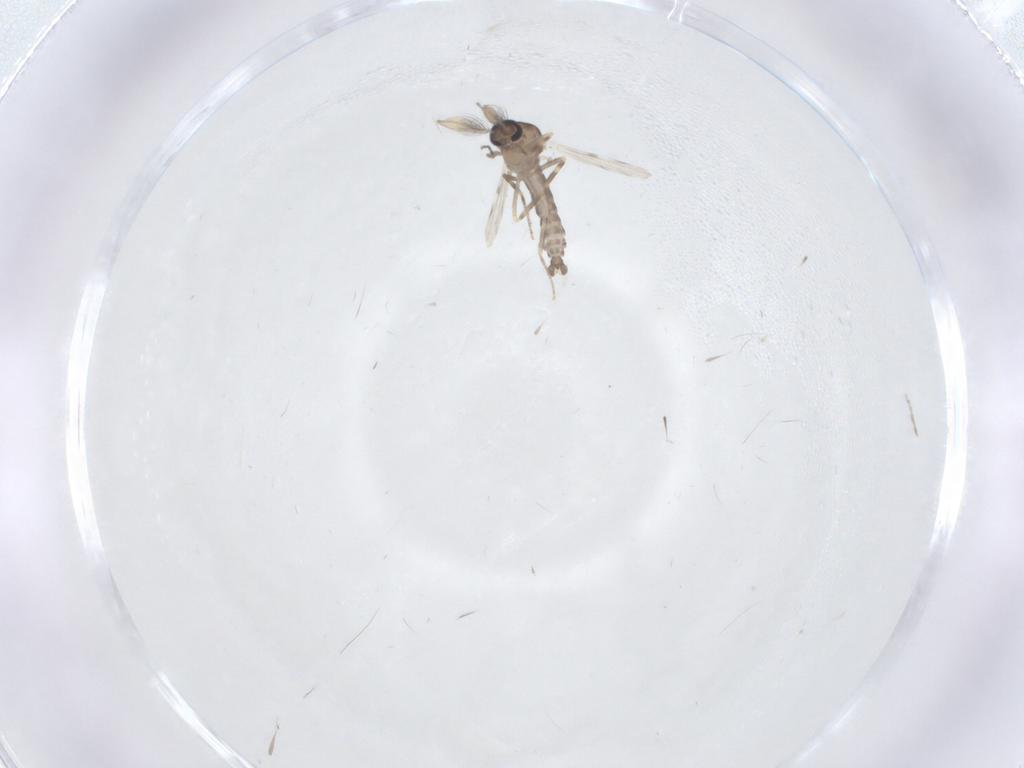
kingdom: Animalia
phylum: Arthropoda
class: Insecta
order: Diptera
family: Ceratopogonidae
